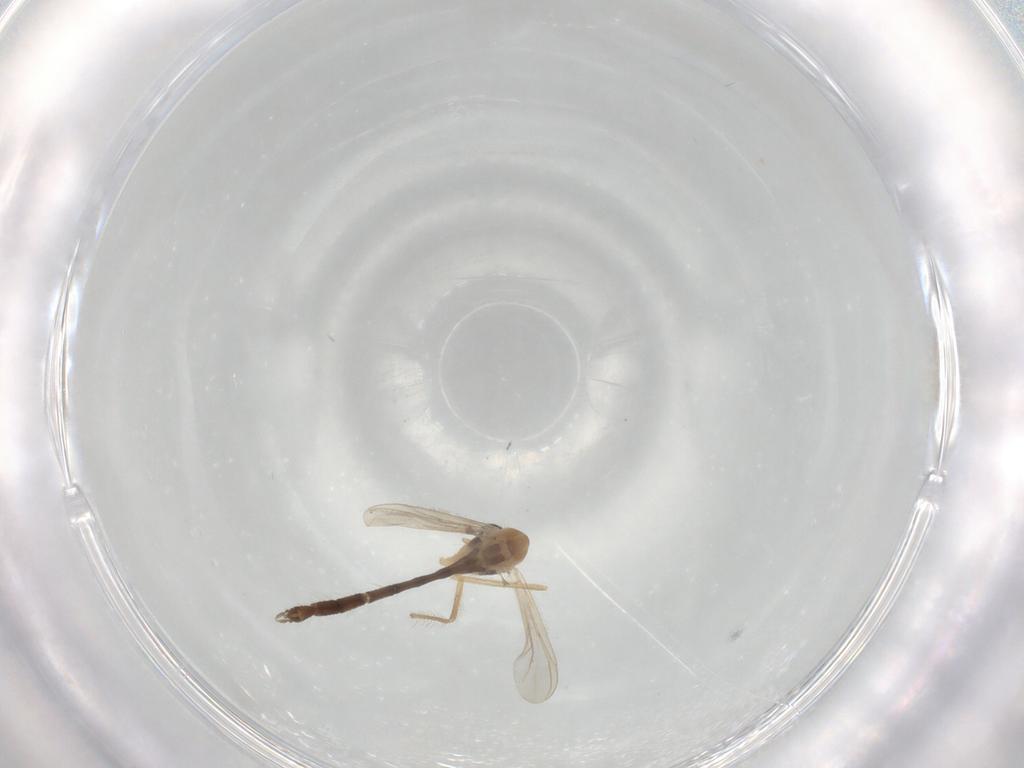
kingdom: Animalia
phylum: Arthropoda
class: Insecta
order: Diptera
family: Chironomidae
